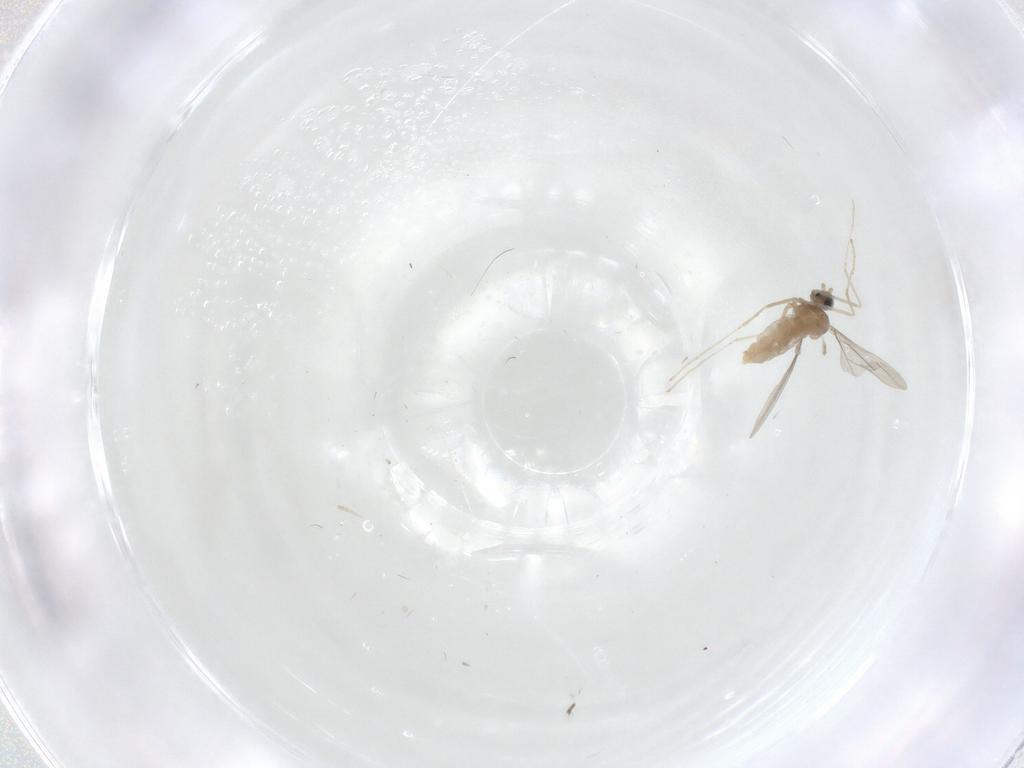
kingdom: Animalia
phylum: Arthropoda
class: Insecta
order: Diptera
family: Cecidomyiidae
